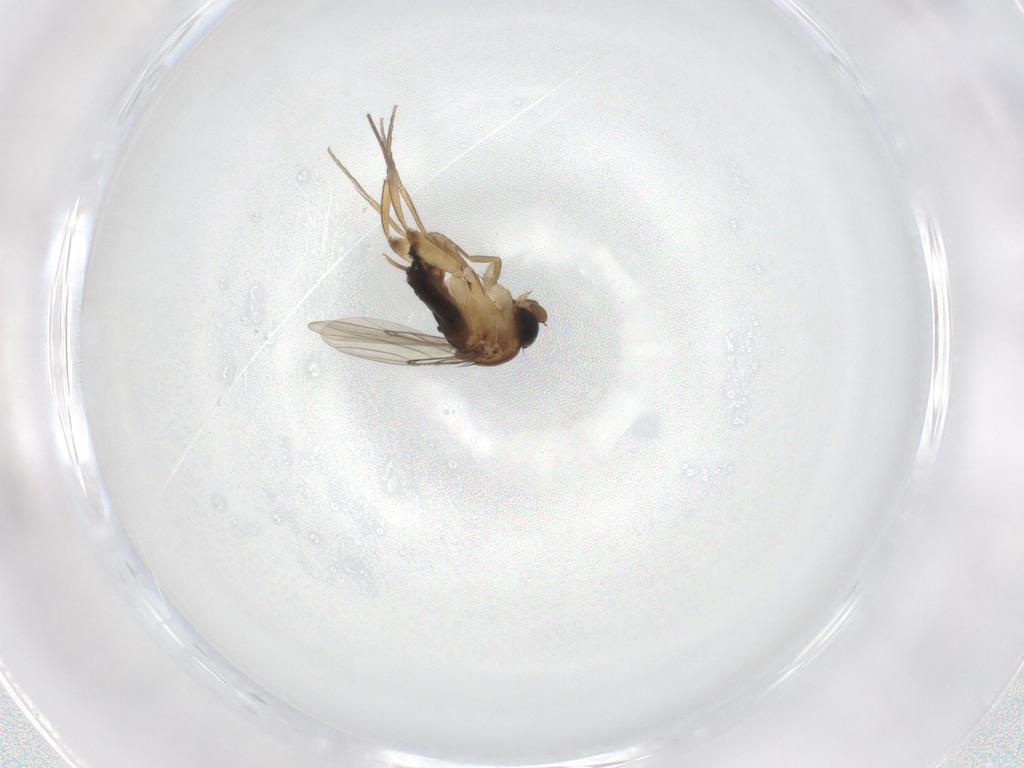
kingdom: Animalia
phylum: Arthropoda
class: Insecta
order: Diptera
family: Phoridae
